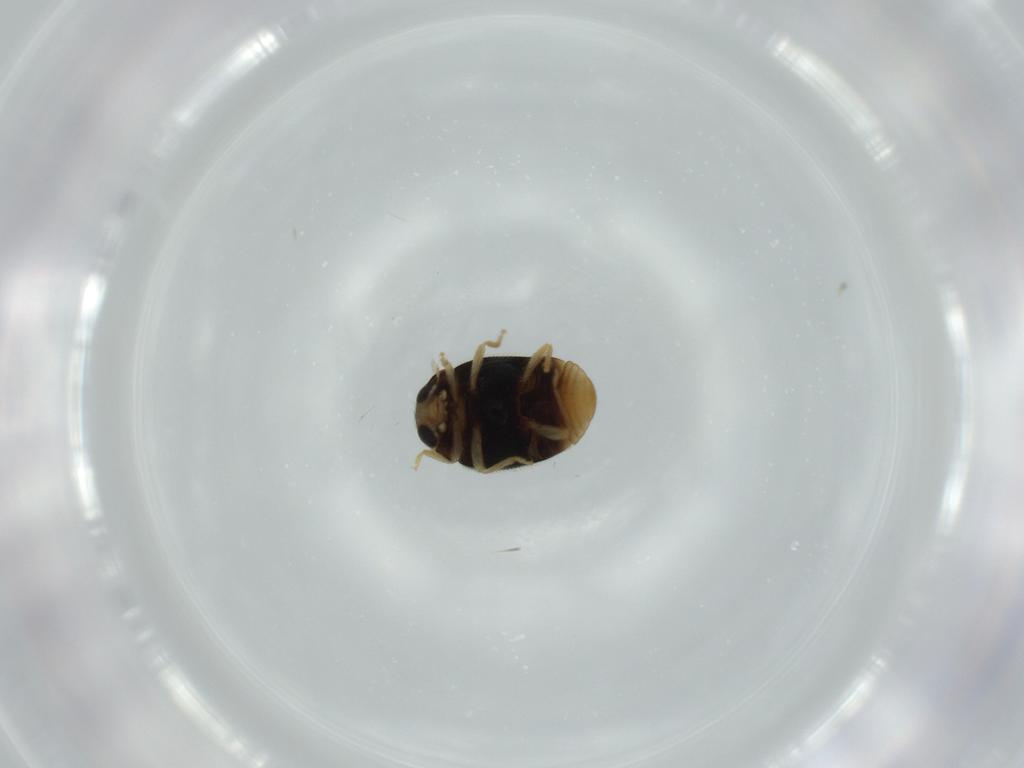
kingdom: Animalia
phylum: Arthropoda
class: Insecta
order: Coleoptera
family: Coccinellidae
